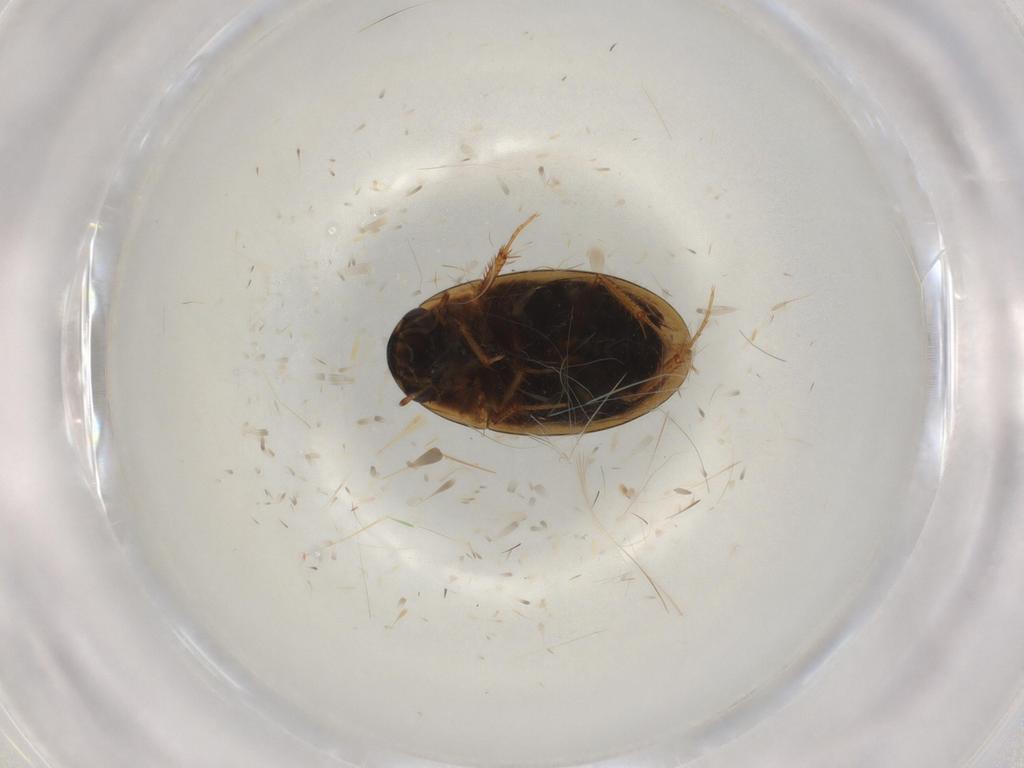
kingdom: Animalia
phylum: Arthropoda
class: Insecta
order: Coleoptera
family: Hydrophilidae
